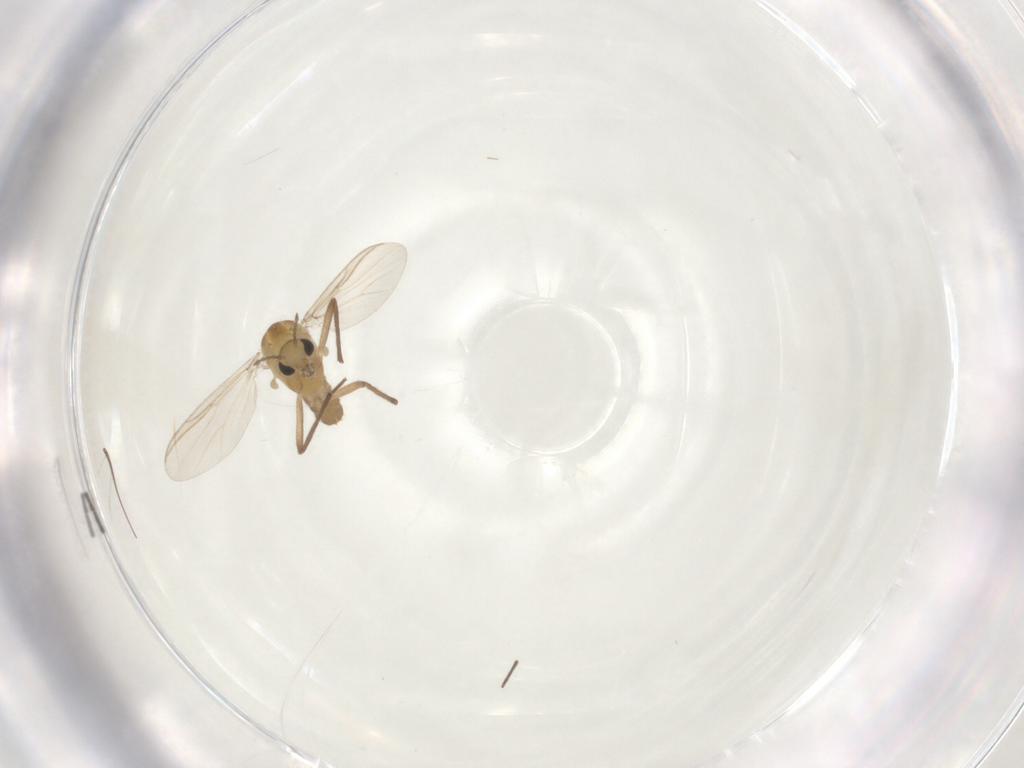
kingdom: Animalia
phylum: Arthropoda
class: Insecta
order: Diptera
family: Chironomidae
